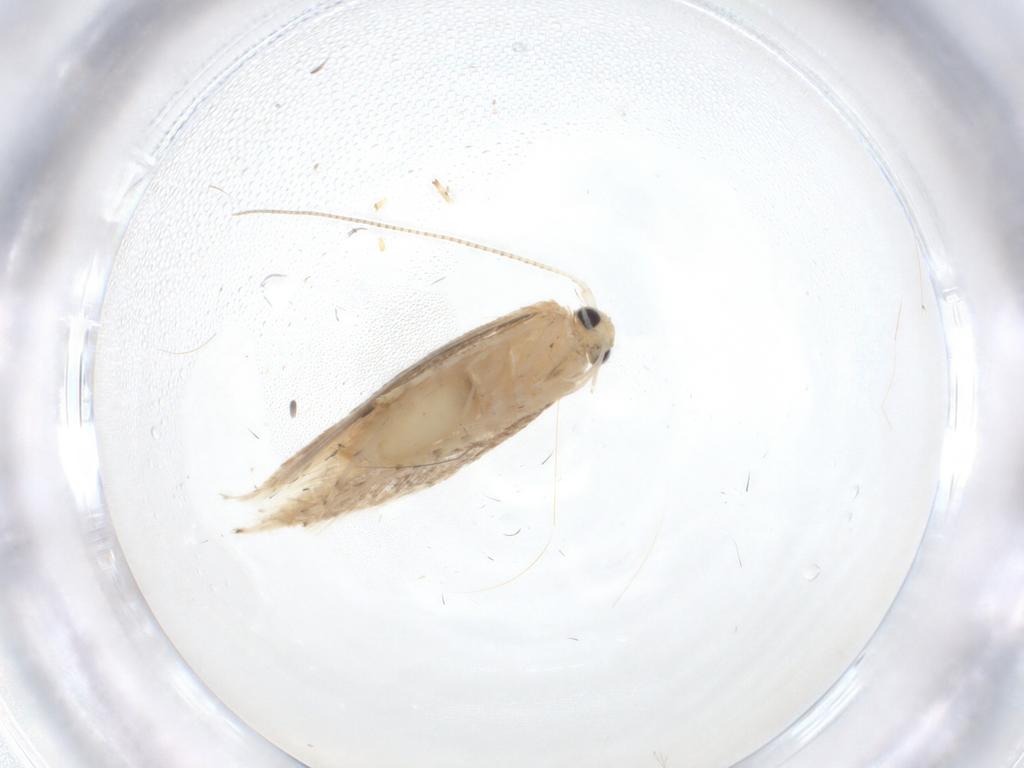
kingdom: Animalia
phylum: Arthropoda
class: Insecta
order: Lepidoptera
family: Gracillariidae
